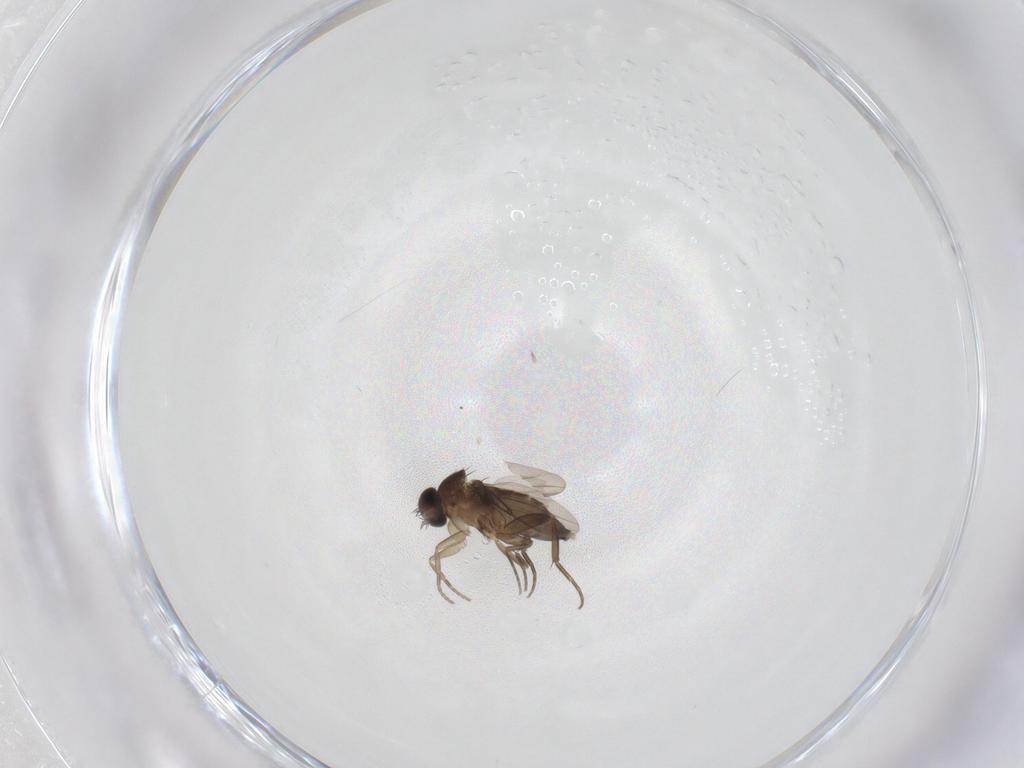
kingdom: Animalia
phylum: Arthropoda
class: Insecta
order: Diptera
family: Phoridae
